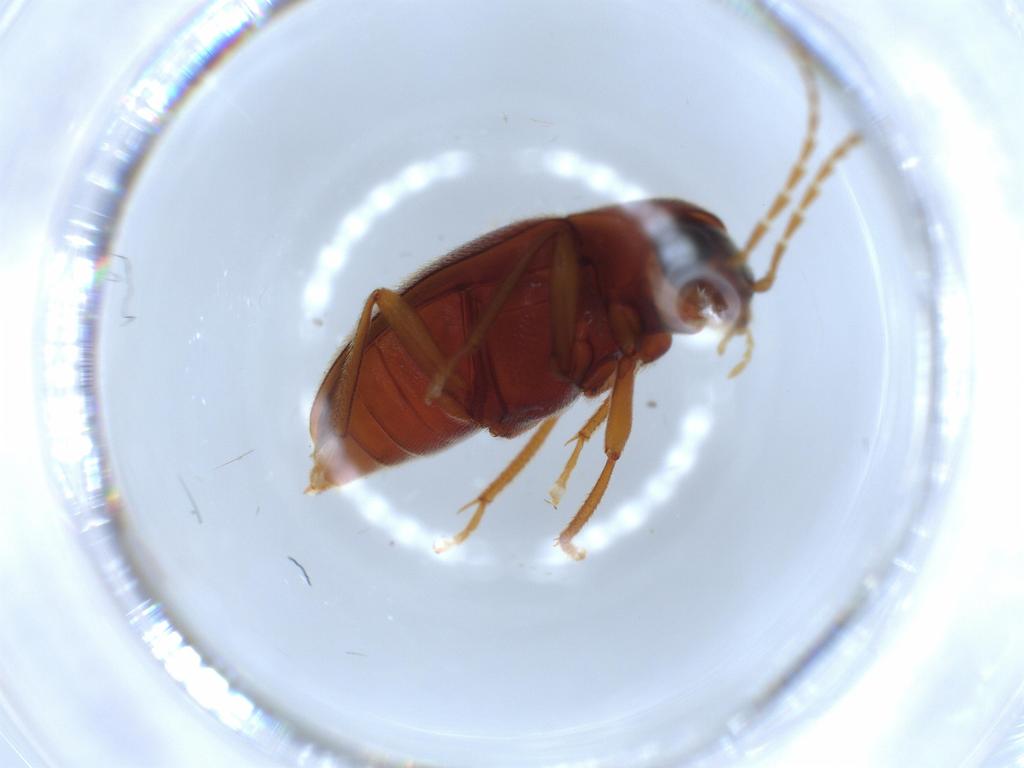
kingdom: Animalia
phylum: Arthropoda
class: Insecta
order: Coleoptera
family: Ptilodactylidae
